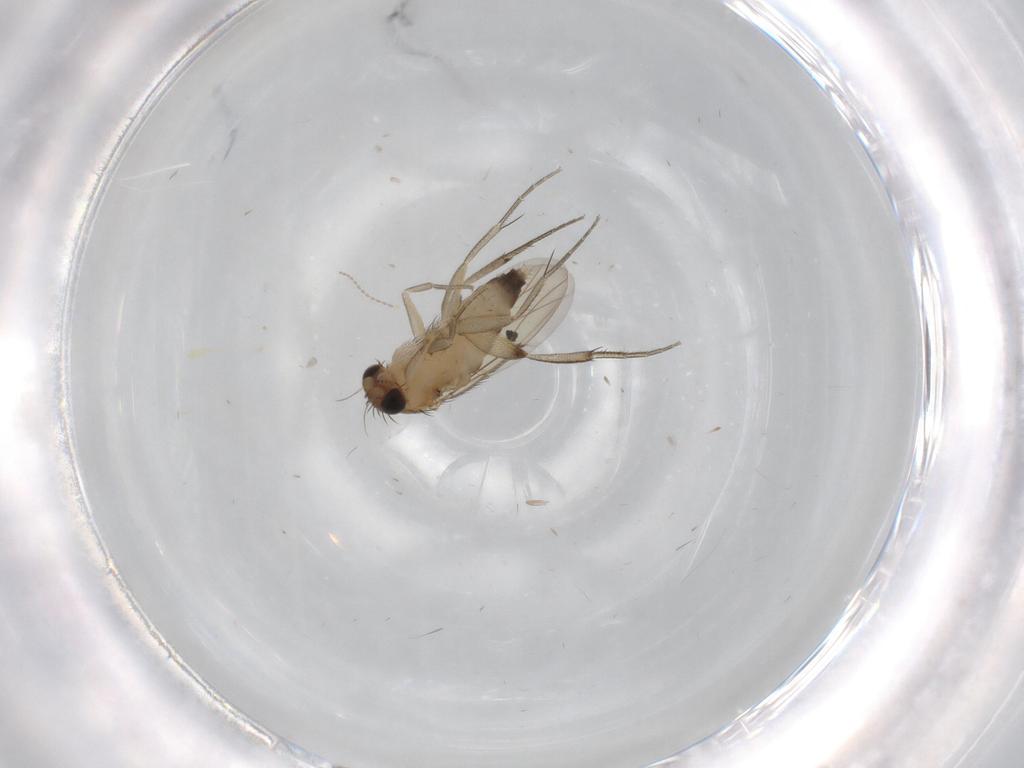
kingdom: Animalia
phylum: Arthropoda
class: Insecta
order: Diptera
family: Phoridae
